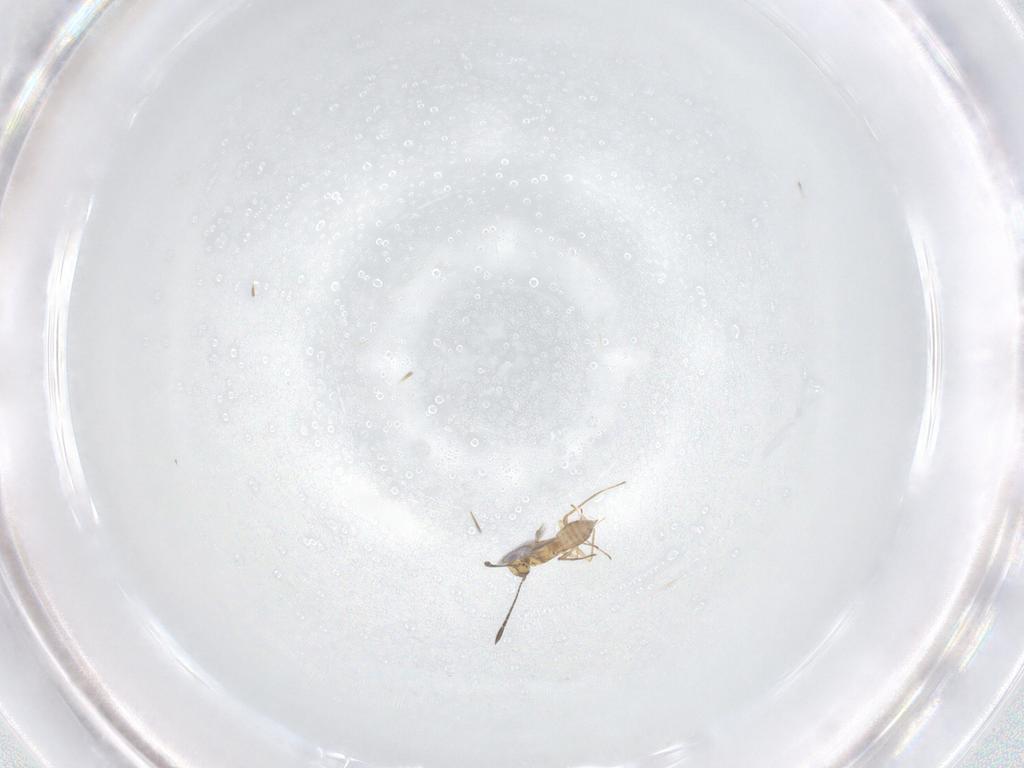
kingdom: Animalia
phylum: Arthropoda
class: Insecta
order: Hymenoptera
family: Mymaridae
